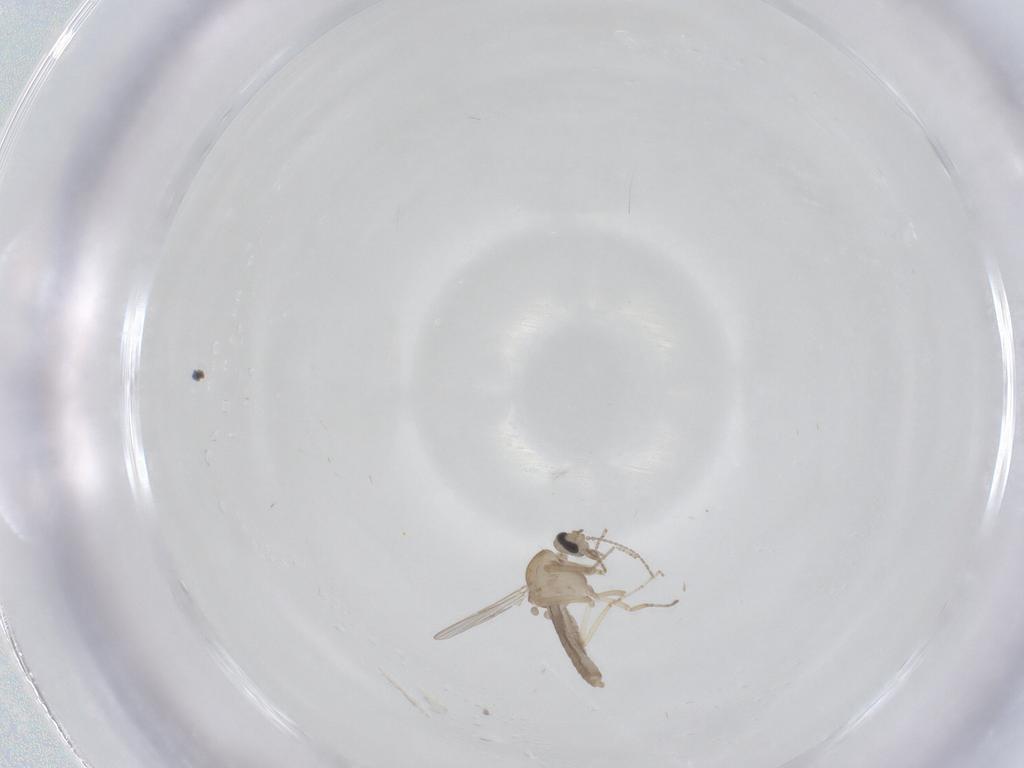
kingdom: Animalia
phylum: Arthropoda
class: Insecta
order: Diptera
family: Ceratopogonidae
